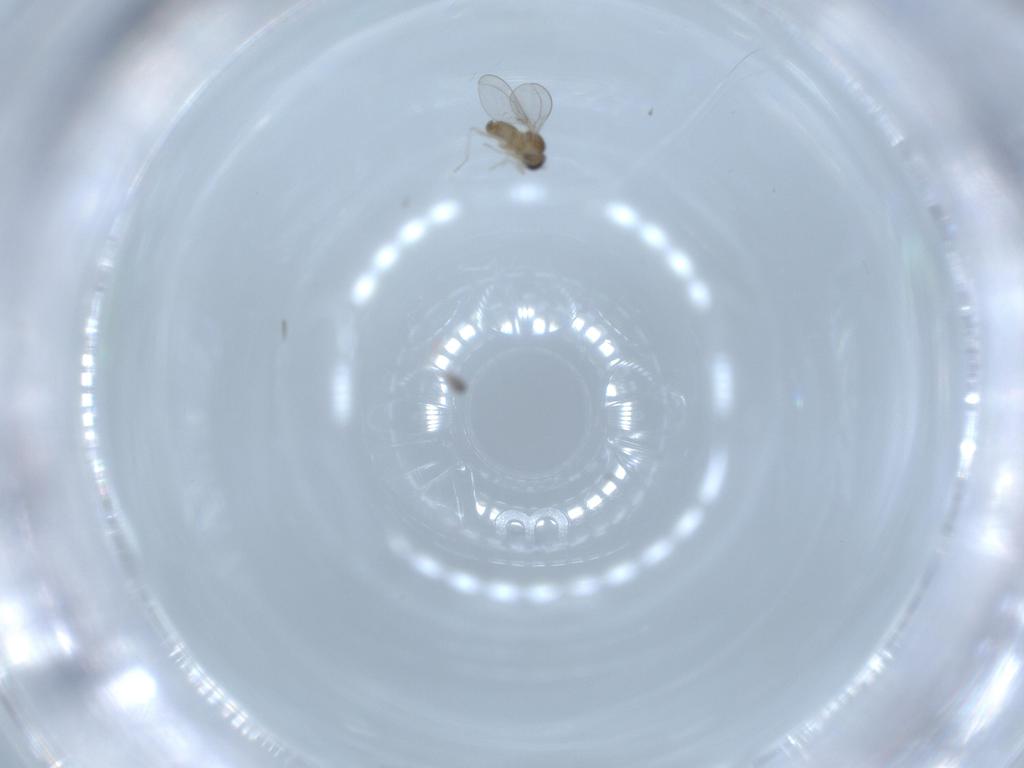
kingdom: Animalia
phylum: Arthropoda
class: Insecta
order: Diptera
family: Cecidomyiidae
